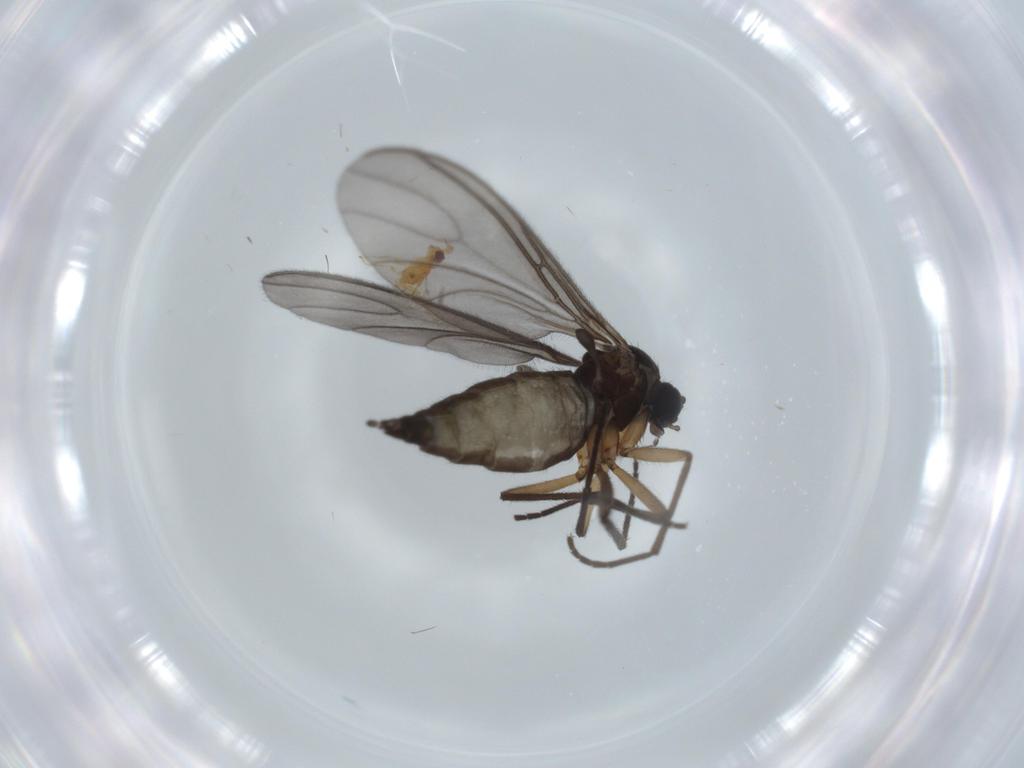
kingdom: Animalia
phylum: Arthropoda
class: Insecta
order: Diptera
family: Sciaridae
